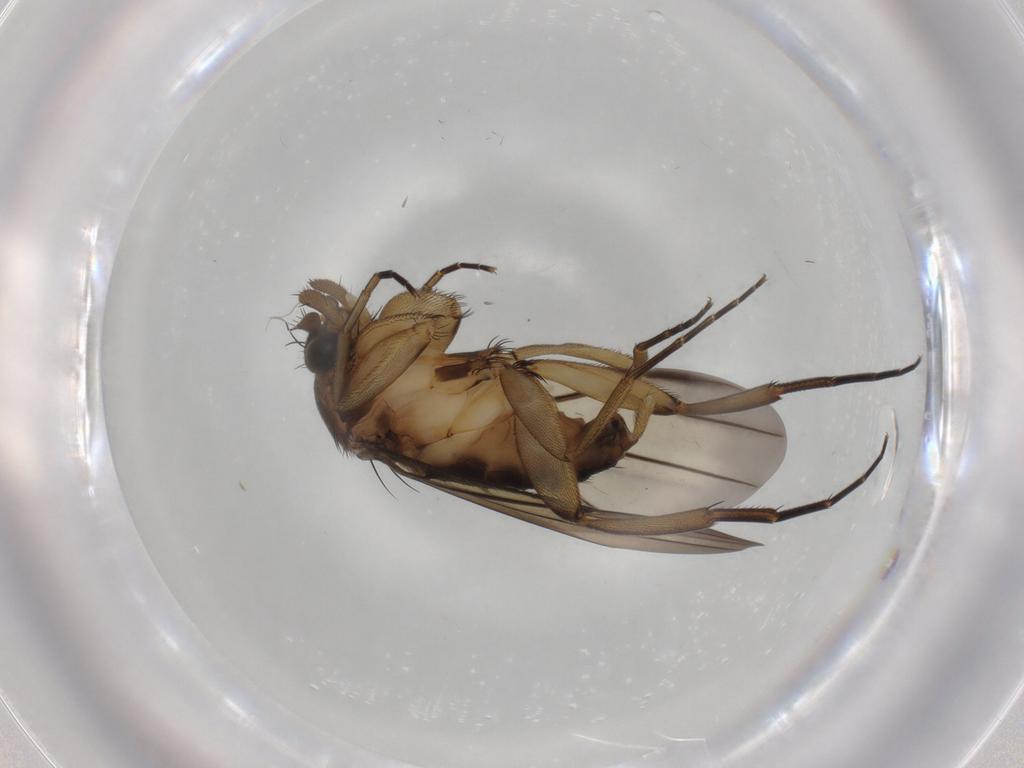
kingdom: Animalia
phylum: Arthropoda
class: Insecta
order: Diptera
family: Phoridae
